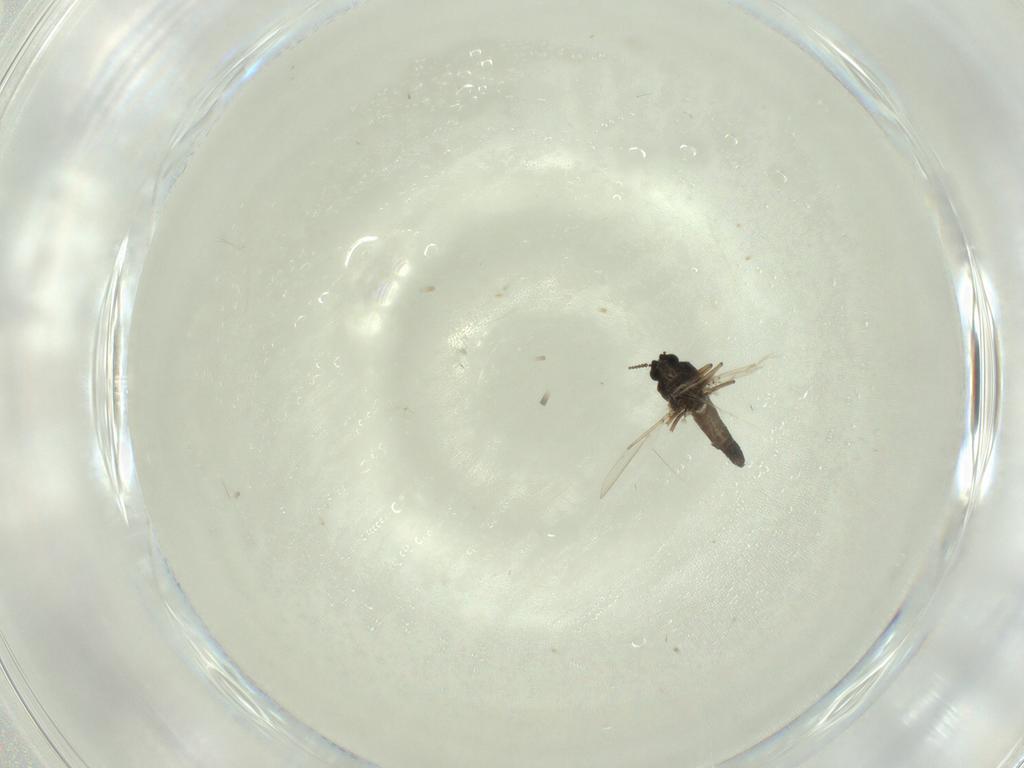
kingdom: Animalia
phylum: Arthropoda
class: Insecta
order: Diptera
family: Ceratopogonidae
